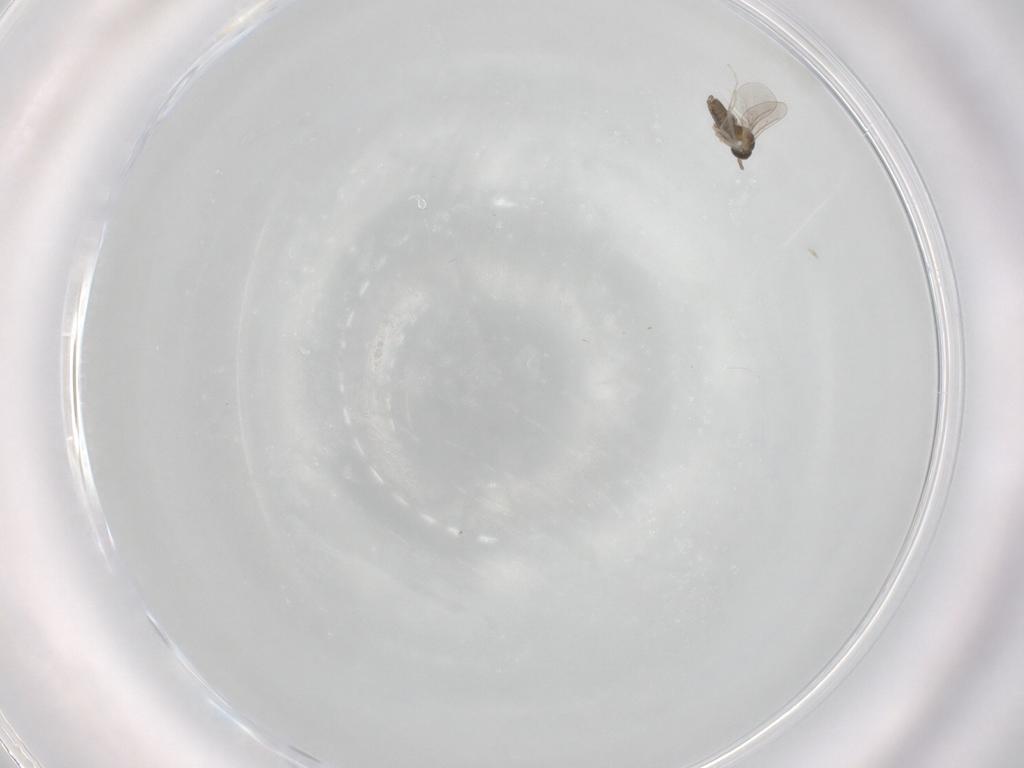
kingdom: Animalia
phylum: Arthropoda
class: Insecta
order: Diptera
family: Cecidomyiidae
